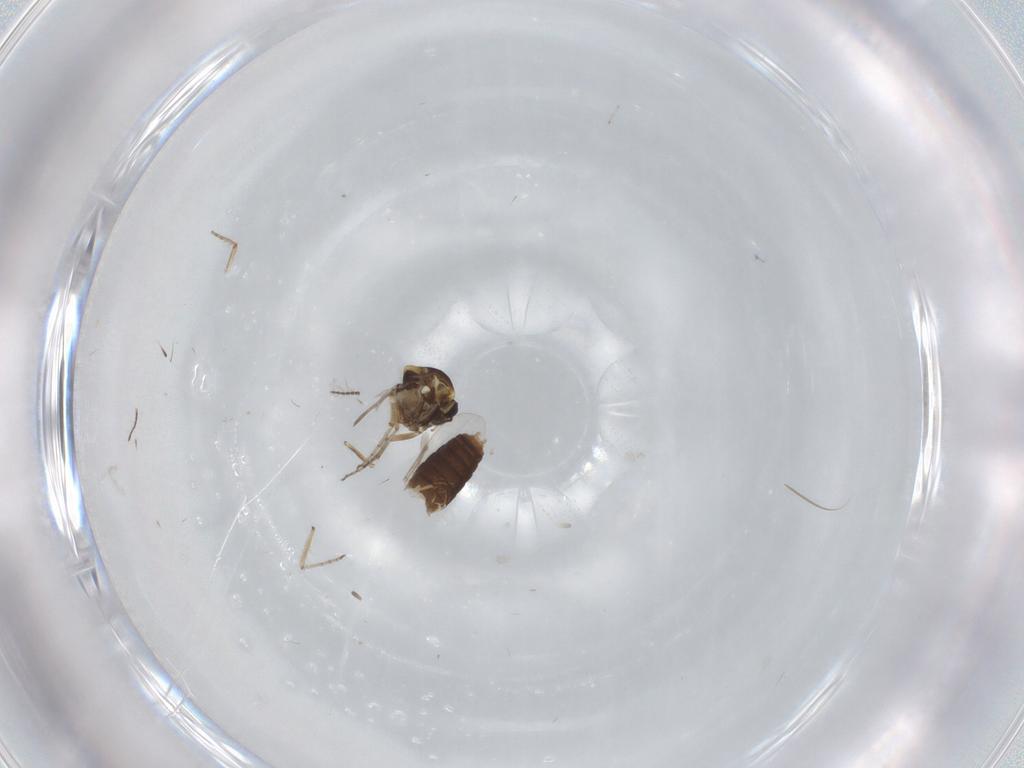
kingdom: Animalia
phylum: Arthropoda
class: Insecta
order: Diptera
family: Ceratopogonidae
